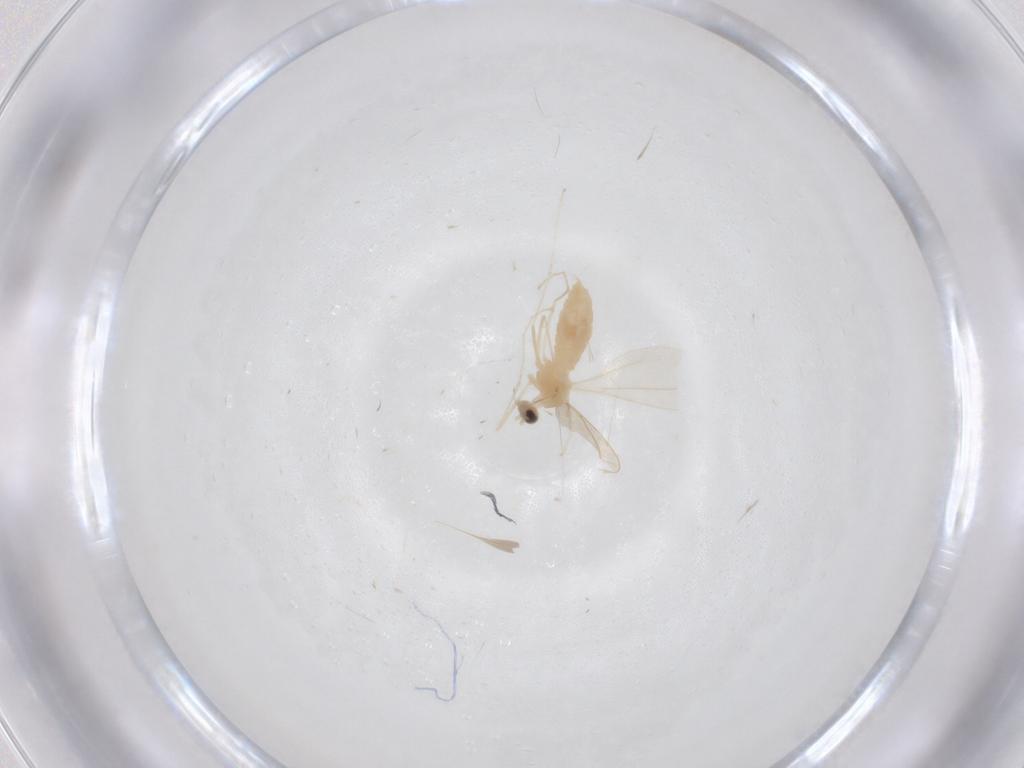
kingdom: Animalia
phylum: Arthropoda
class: Insecta
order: Diptera
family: Cecidomyiidae
